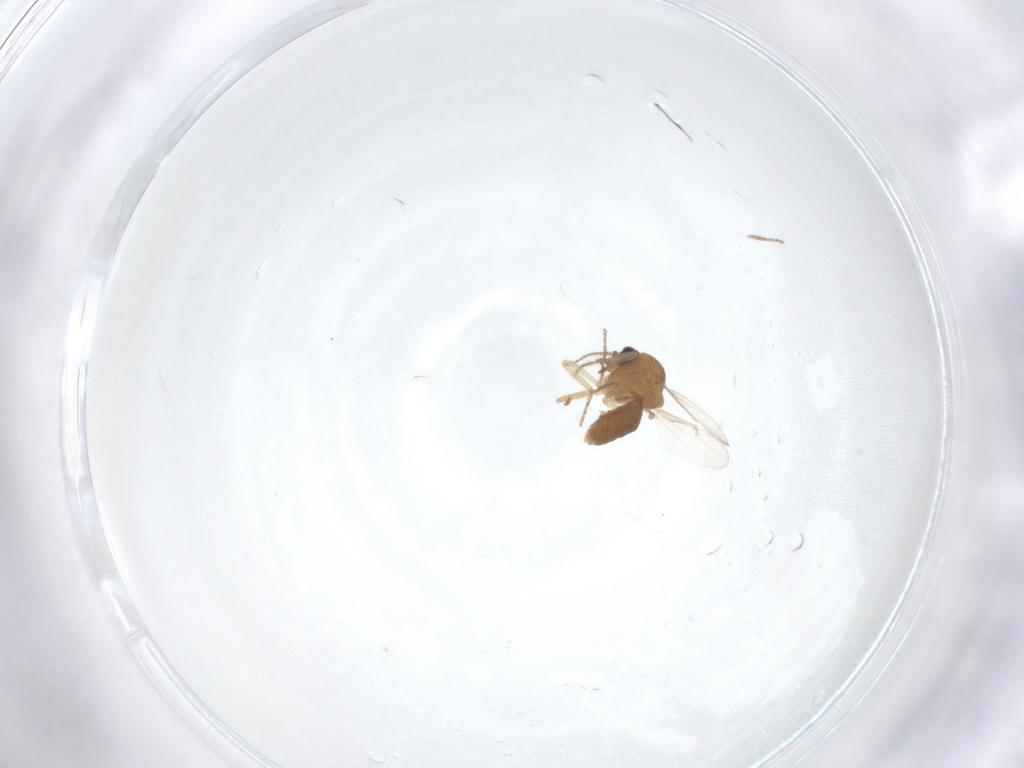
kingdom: Animalia
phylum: Arthropoda
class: Insecta
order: Diptera
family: Ceratopogonidae
